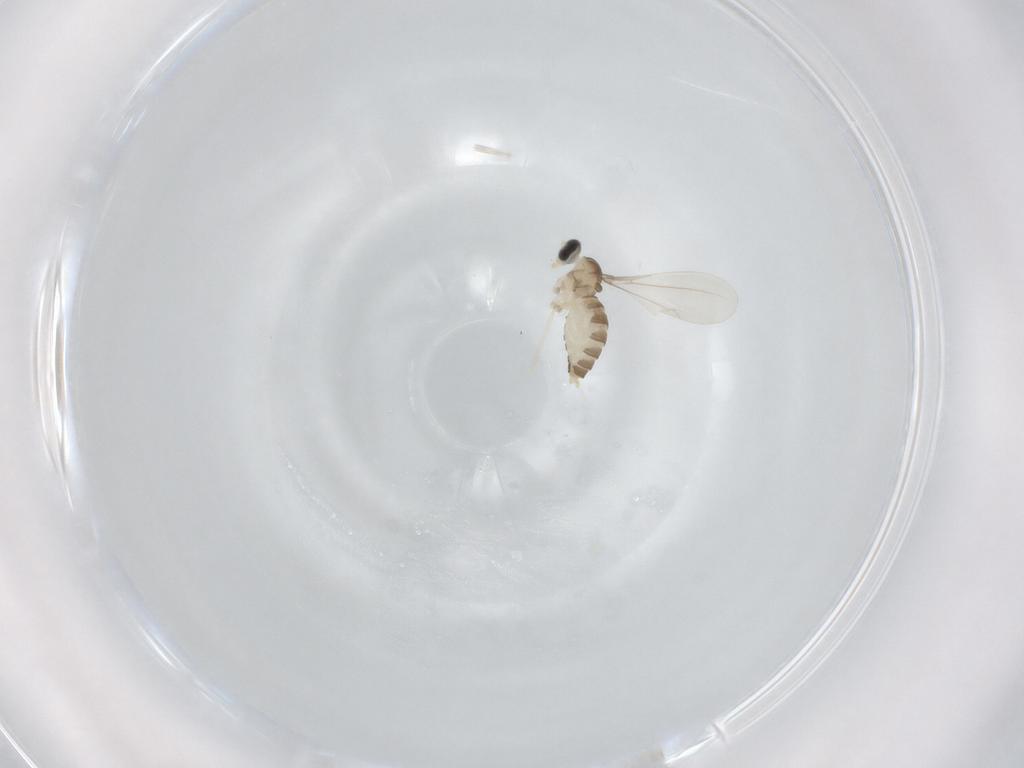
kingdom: Animalia
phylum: Arthropoda
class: Insecta
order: Diptera
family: Cecidomyiidae
